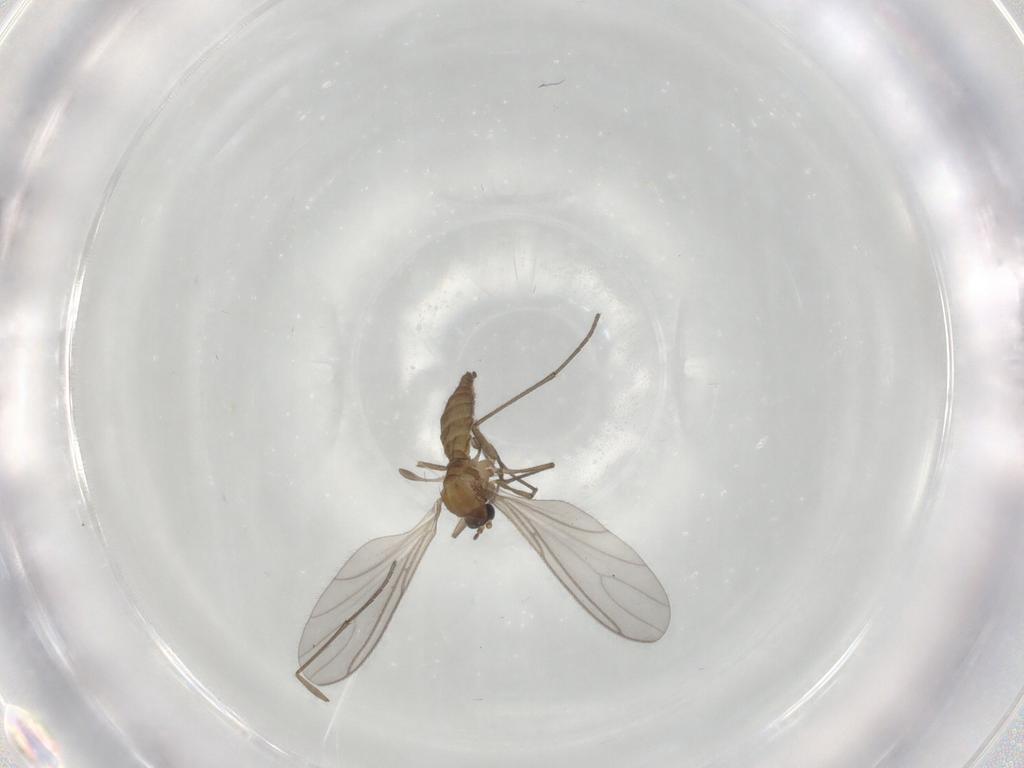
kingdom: Animalia
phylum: Arthropoda
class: Insecta
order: Diptera
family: Sciaridae
